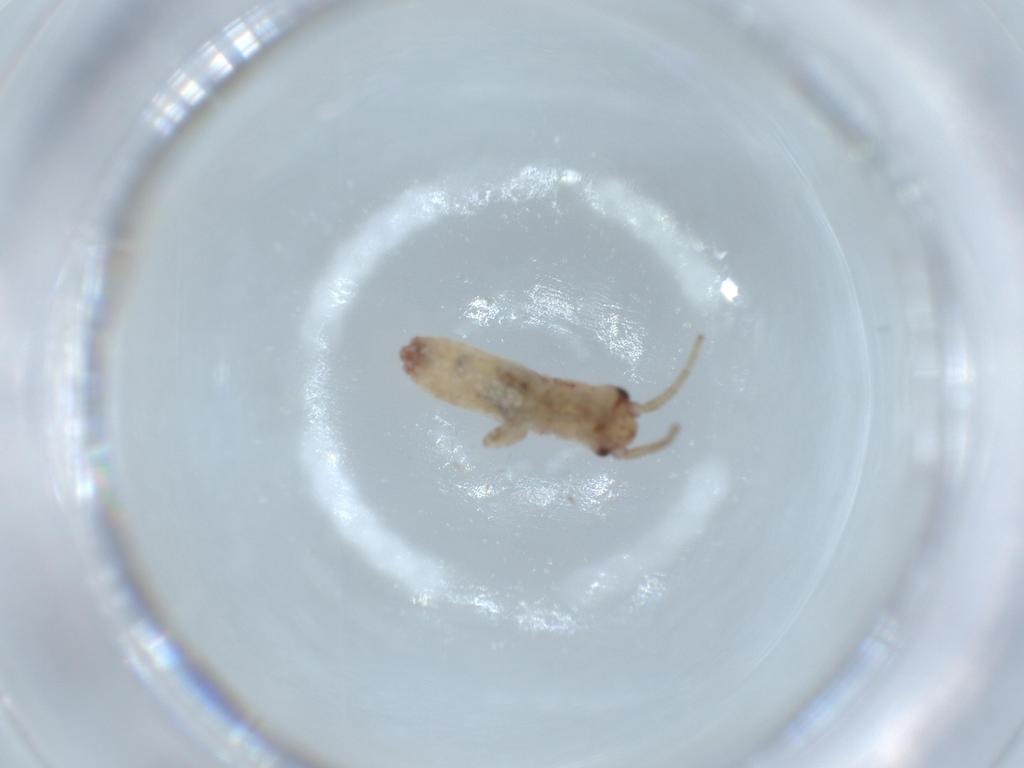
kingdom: Animalia
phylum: Arthropoda
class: Insecta
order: Orthoptera
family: Mogoplistidae
